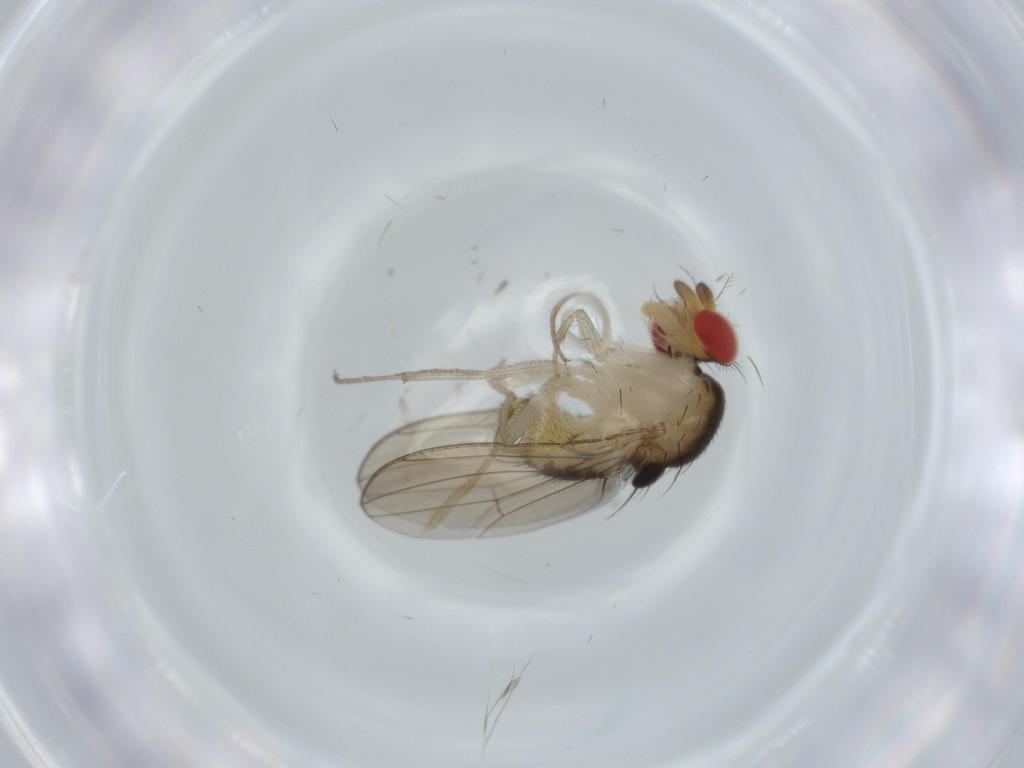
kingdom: Animalia
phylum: Arthropoda
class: Insecta
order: Diptera
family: Drosophilidae
